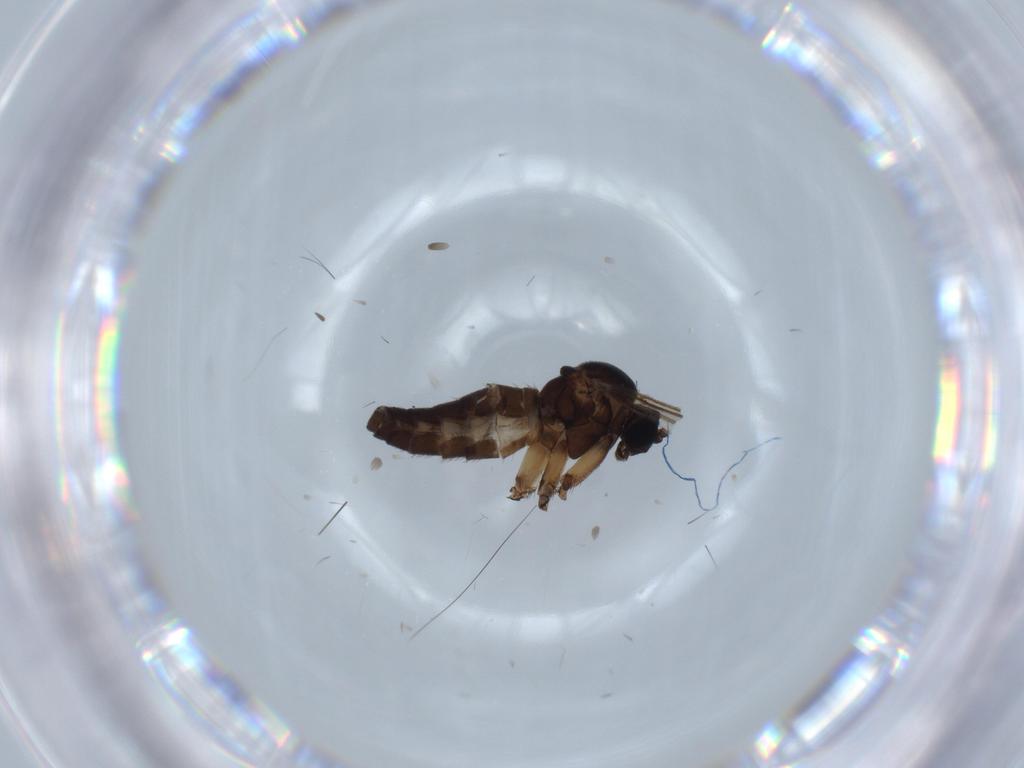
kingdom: Animalia
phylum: Arthropoda
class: Insecta
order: Diptera
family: Sciaridae
